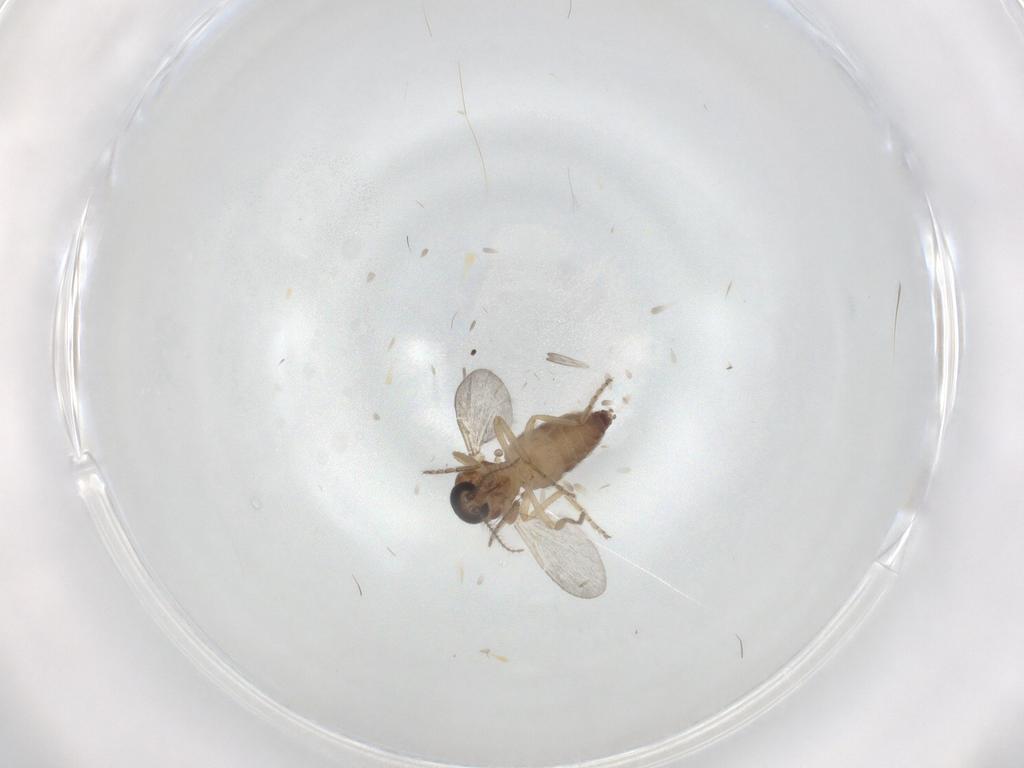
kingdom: Animalia
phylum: Arthropoda
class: Insecta
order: Diptera
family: Ceratopogonidae
